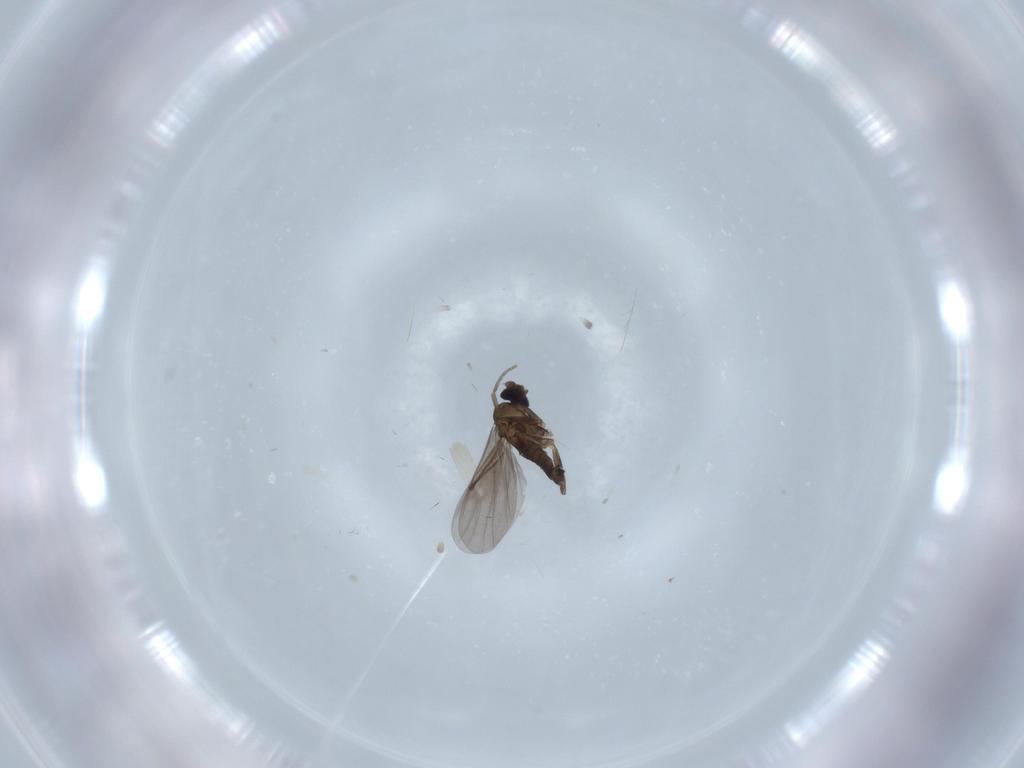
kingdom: Animalia
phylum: Arthropoda
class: Insecta
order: Diptera
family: Phoridae
